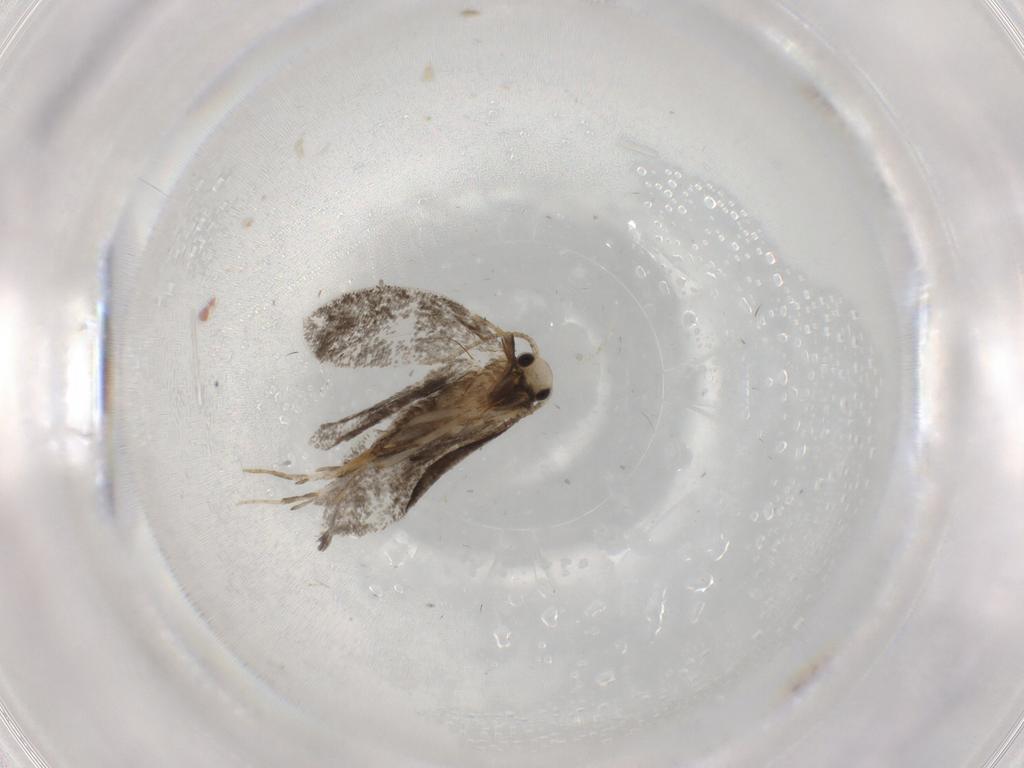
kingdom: Animalia
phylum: Arthropoda
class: Insecta
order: Lepidoptera
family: Psychidae
